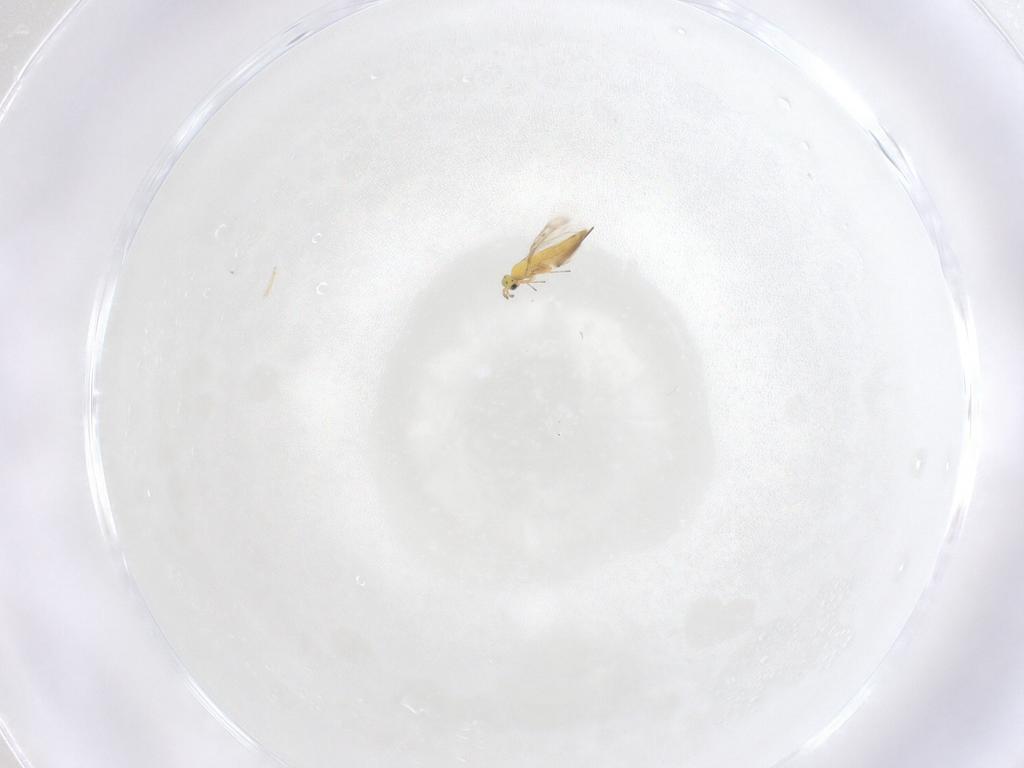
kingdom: Animalia
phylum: Arthropoda
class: Insecta
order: Hymenoptera
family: Trichogrammatidae
